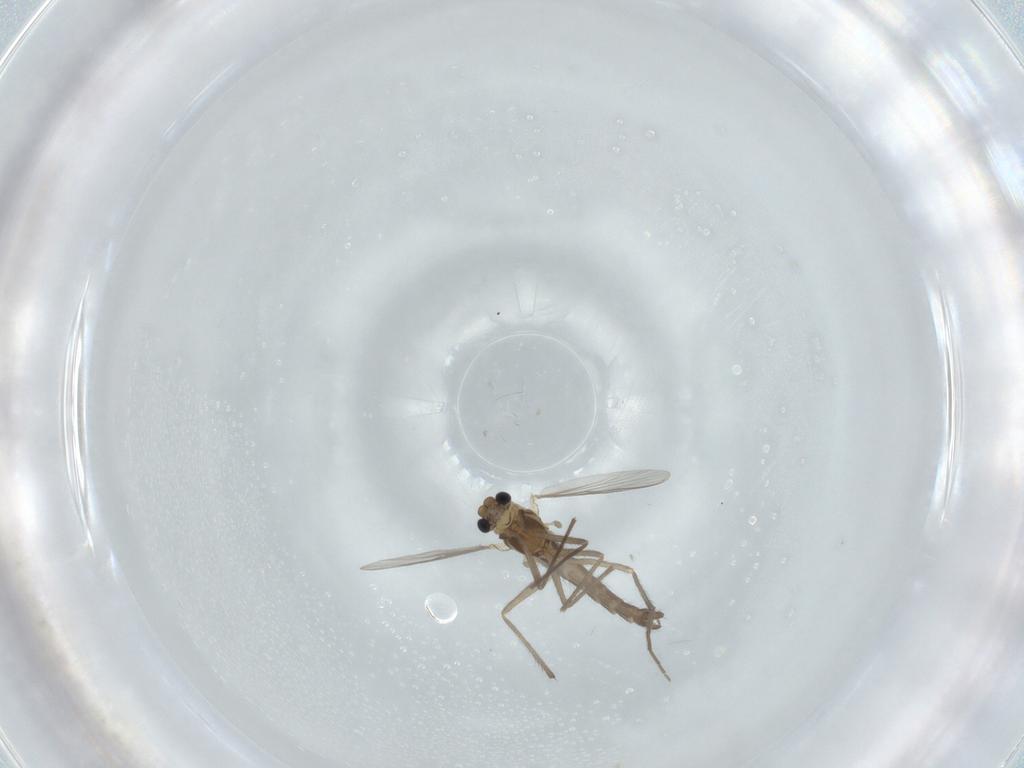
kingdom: Animalia
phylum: Arthropoda
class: Insecta
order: Diptera
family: Chironomidae
